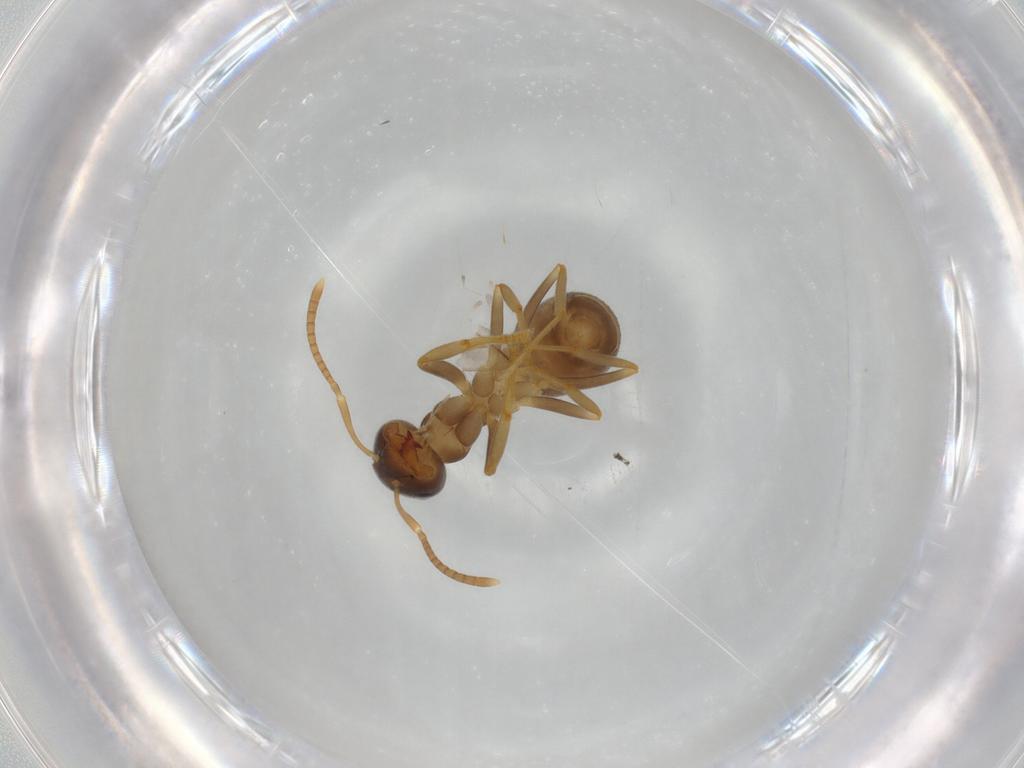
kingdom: Animalia
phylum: Arthropoda
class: Insecta
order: Hymenoptera
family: Formicidae
